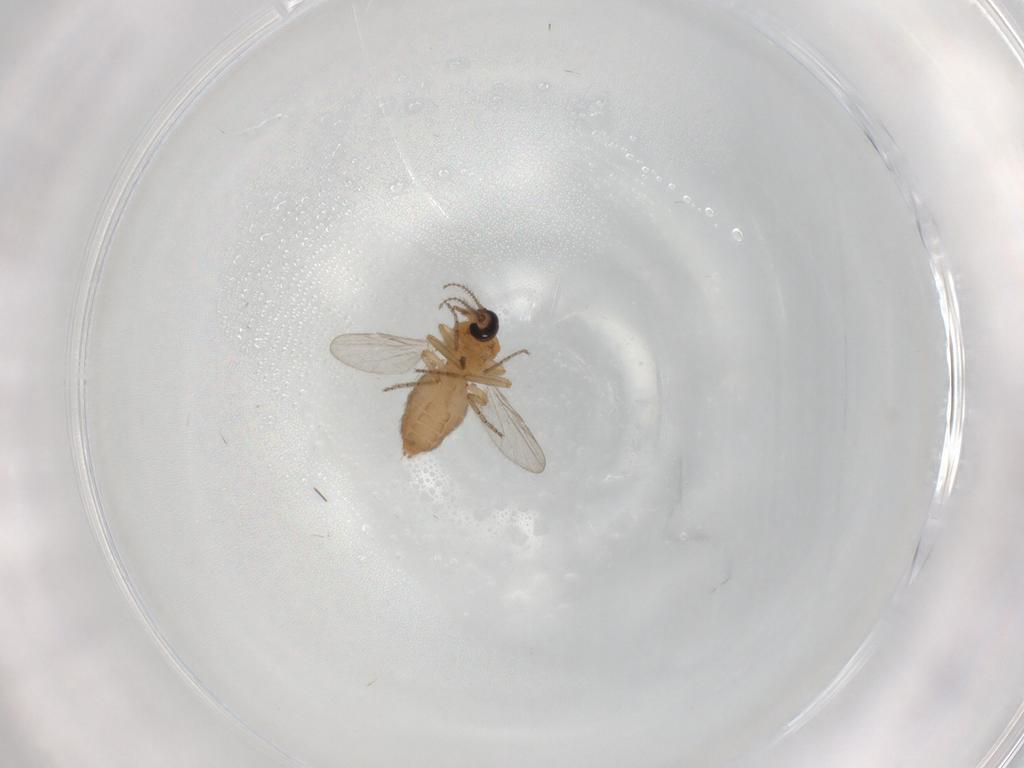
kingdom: Animalia
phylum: Arthropoda
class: Insecta
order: Diptera
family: Ceratopogonidae
